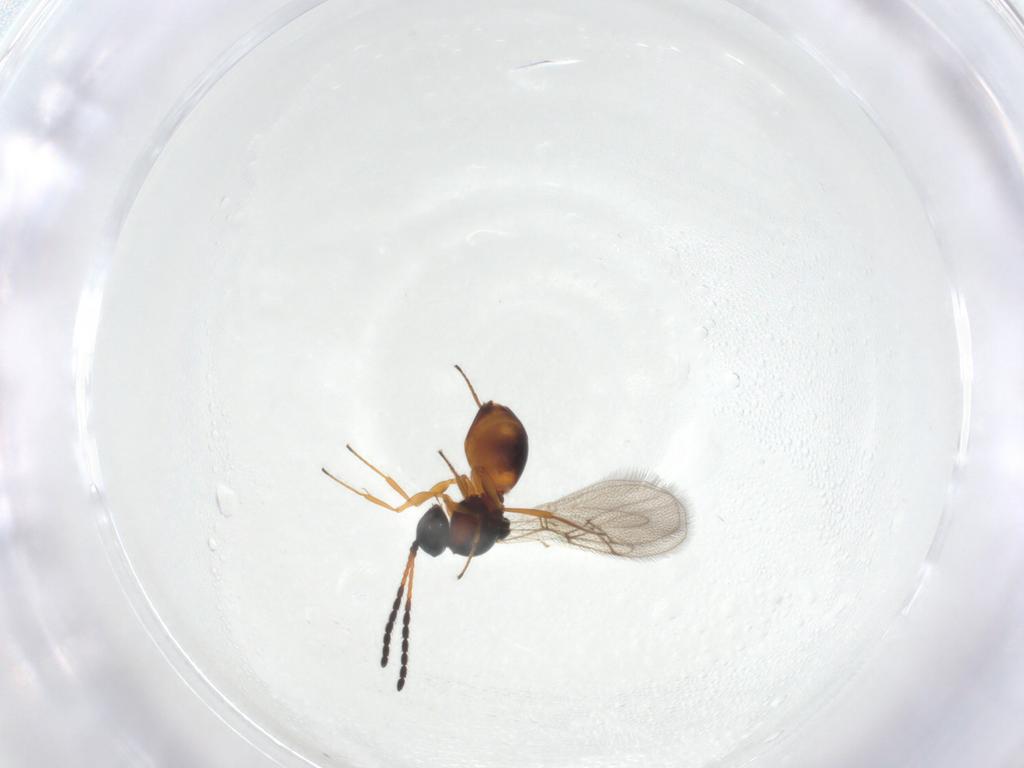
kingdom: Animalia
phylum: Arthropoda
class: Insecta
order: Hymenoptera
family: Figitidae
